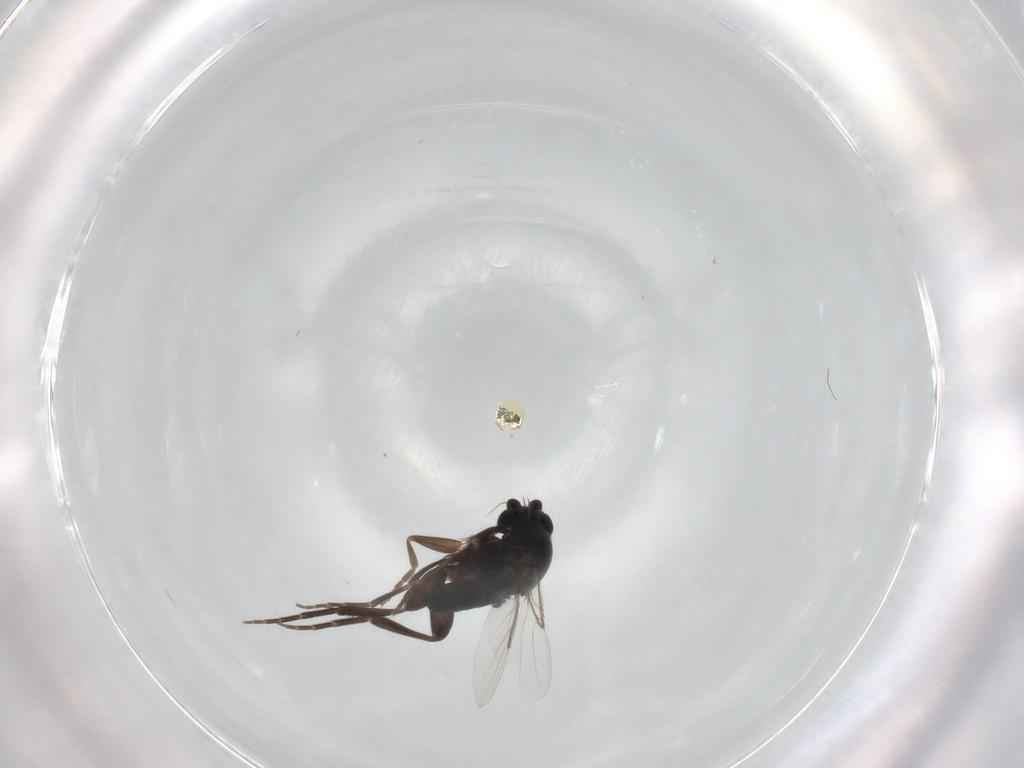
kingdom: Animalia
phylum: Arthropoda
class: Insecta
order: Diptera
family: Phoridae
